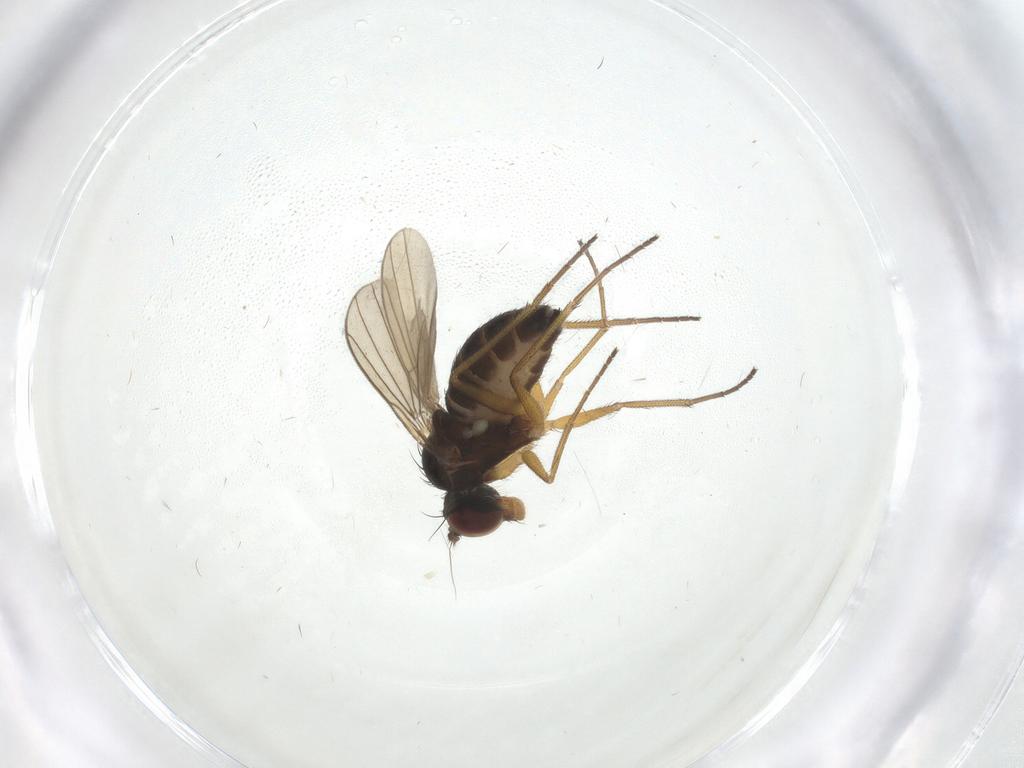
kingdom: Animalia
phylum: Arthropoda
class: Insecta
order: Diptera
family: Dolichopodidae
